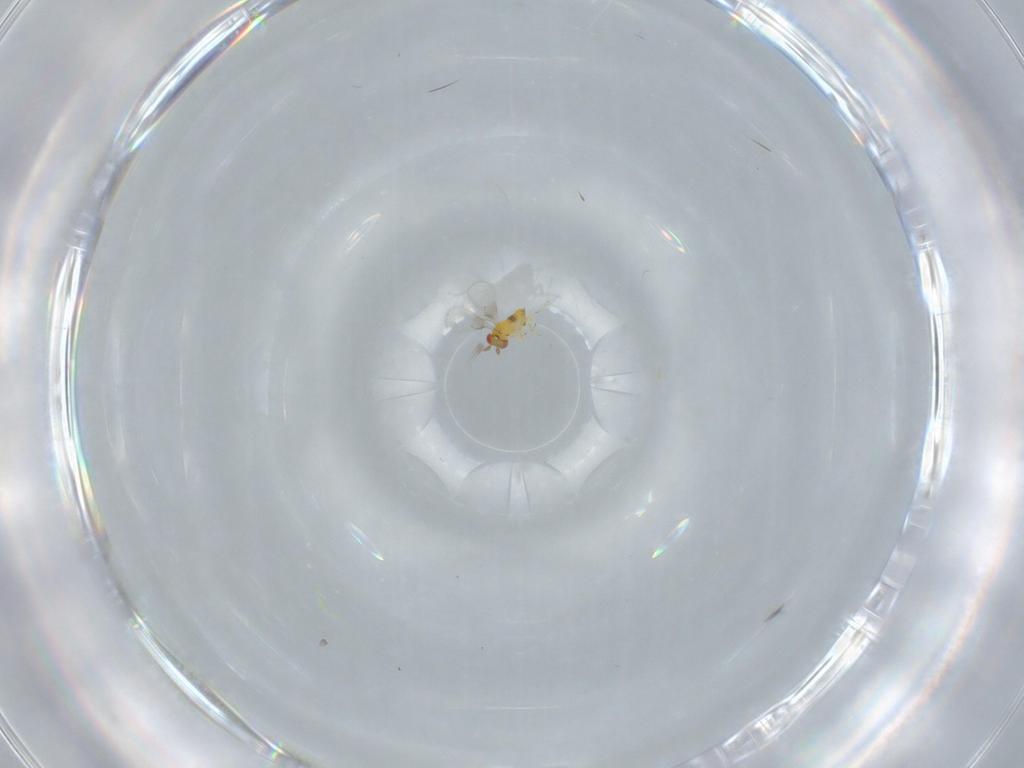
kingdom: Animalia
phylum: Arthropoda
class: Insecta
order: Hymenoptera
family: Trichogrammatidae
